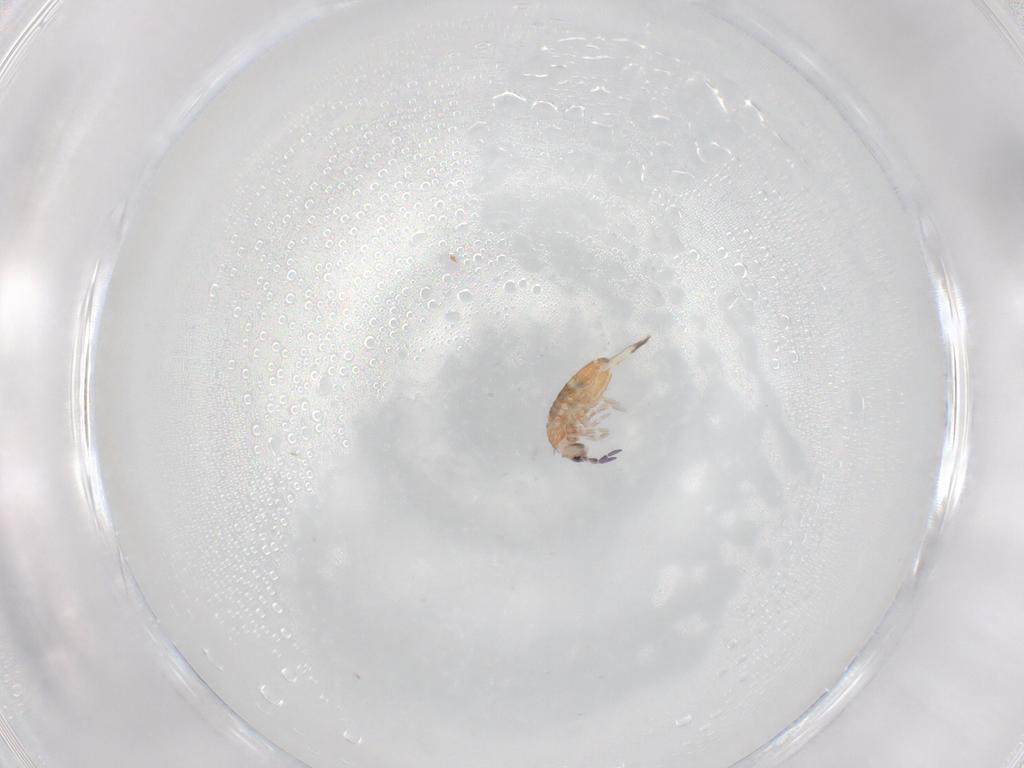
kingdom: Animalia
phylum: Arthropoda
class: Collembola
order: Entomobryomorpha
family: Entomobryidae
